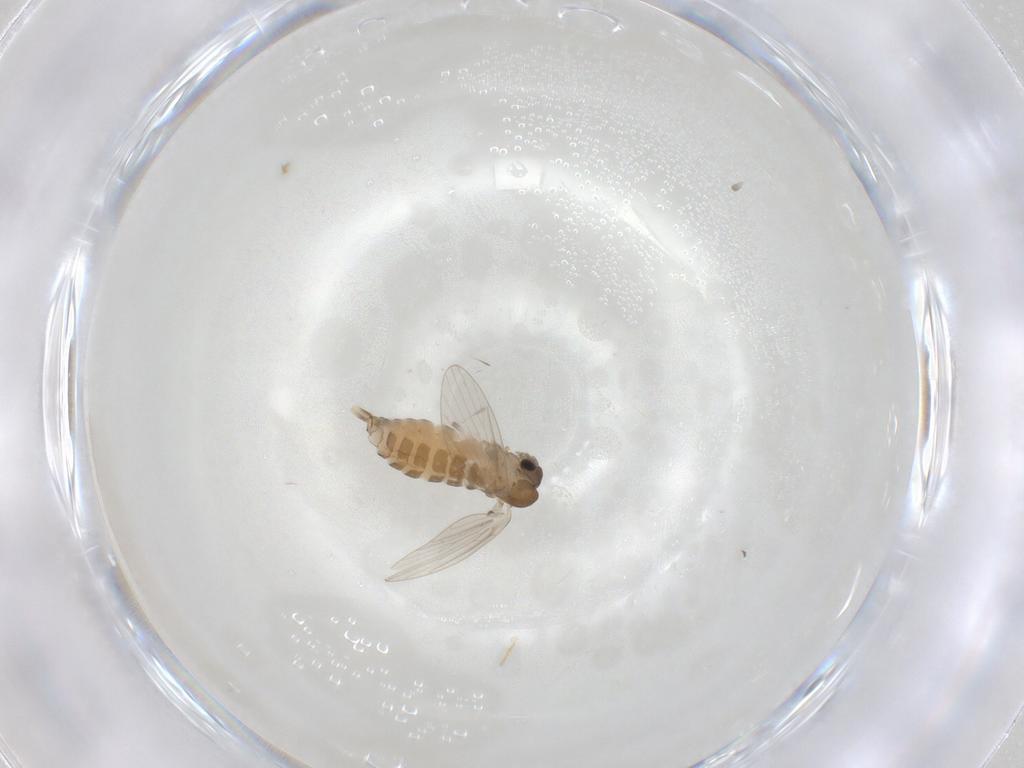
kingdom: Animalia
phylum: Arthropoda
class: Insecta
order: Diptera
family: Psychodidae
